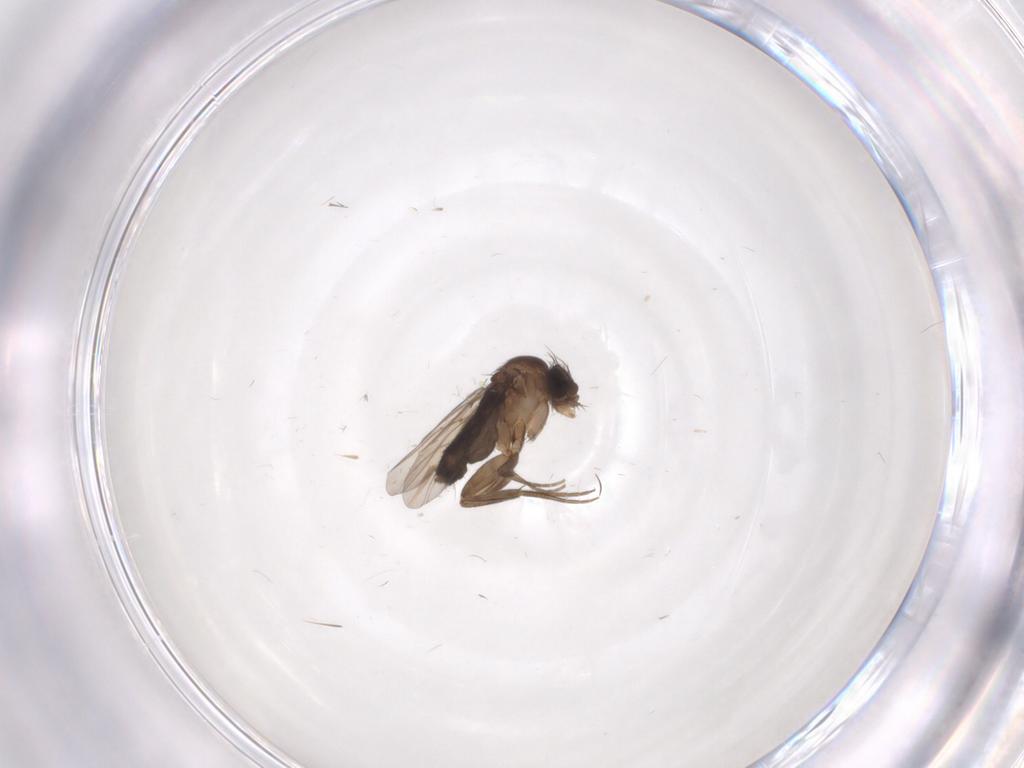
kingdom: Animalia
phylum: Arthropoda
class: Insecta
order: Diptera
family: Phoridae
